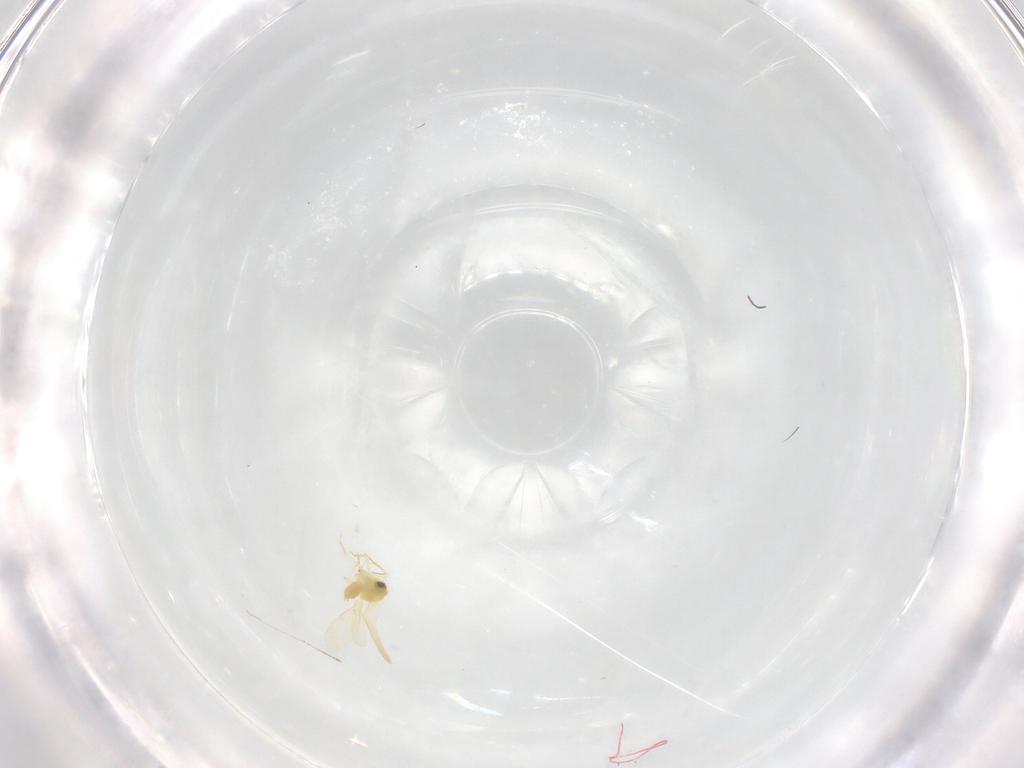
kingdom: Animalia
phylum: Arthropoda
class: Insecta
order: Hemiptera
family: Aleyrodidae
